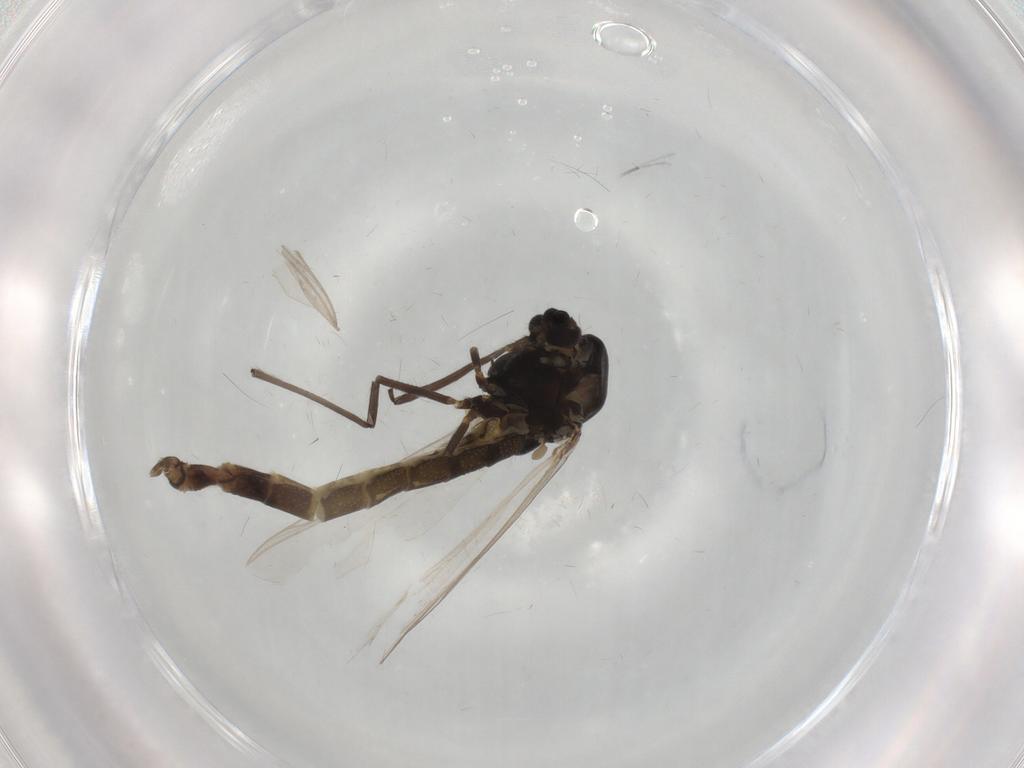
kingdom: Animalia
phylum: Arthropoda
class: Insecta
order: Diptera
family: Chironomidae
